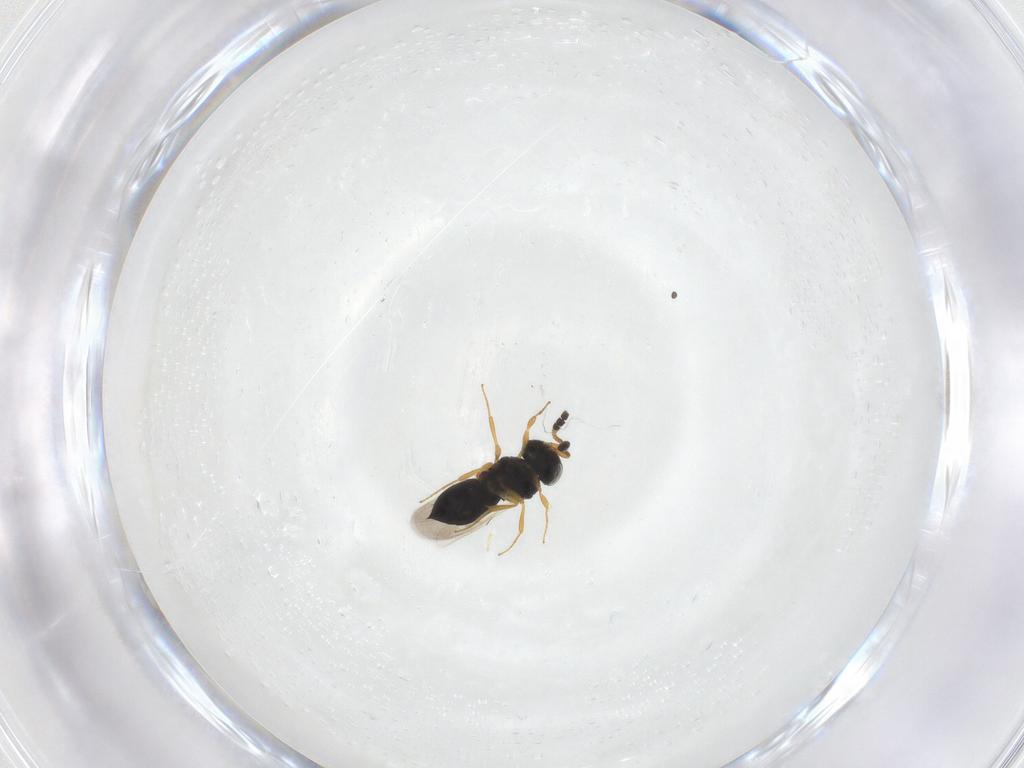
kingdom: Animalia
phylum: Arthropoda
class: Insecta
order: Hymenoptera
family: Scelionidae
